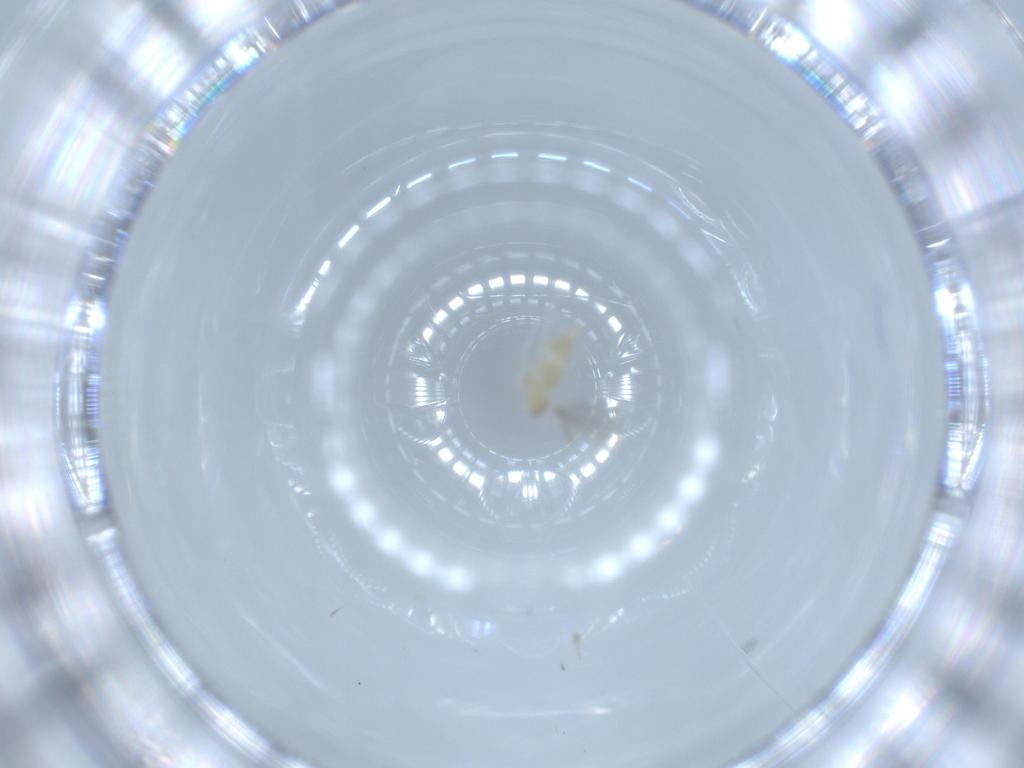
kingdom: Animalia
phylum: Arthropoda
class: Insecta
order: Diptera
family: Cecidomyiidae
